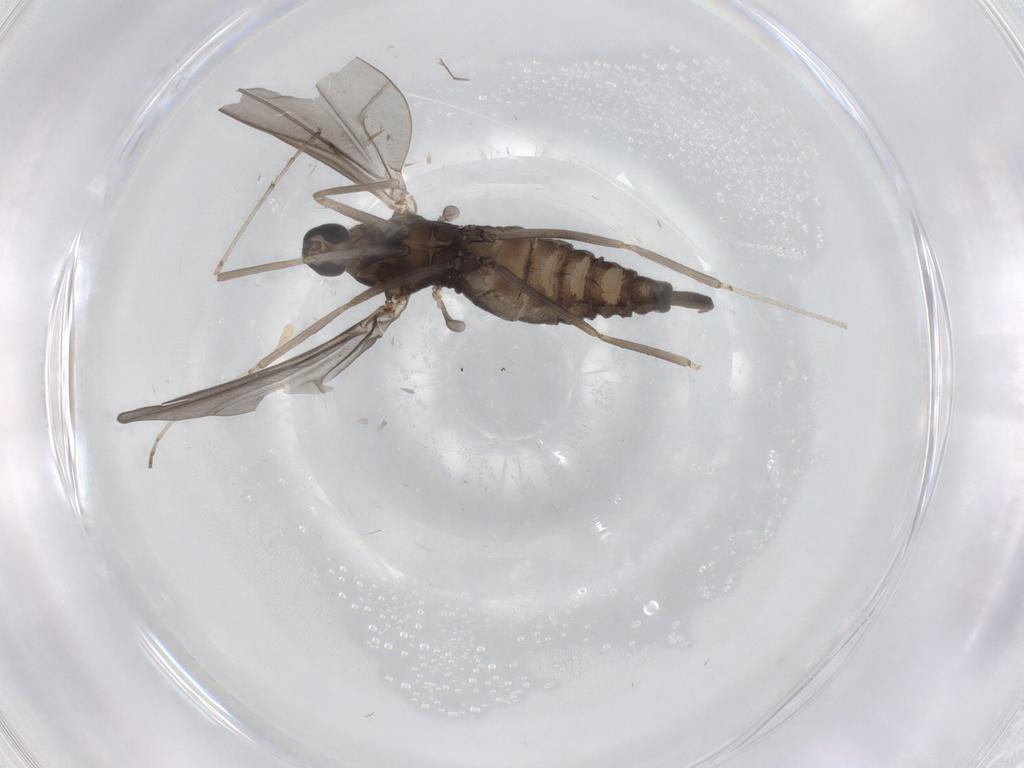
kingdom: Animalia
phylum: Arthropoda
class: Insecta
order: Diptera
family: Cecidomyiidae
